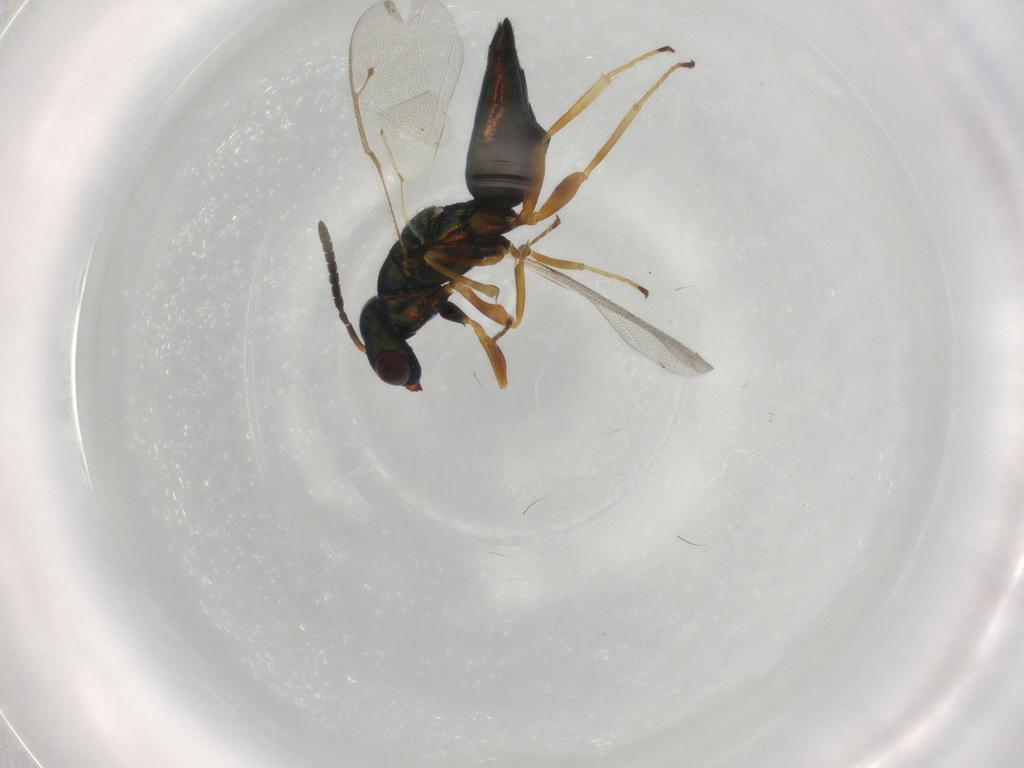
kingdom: Animalia
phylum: Arthropoda
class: Insecta
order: Hymenoptera
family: Pteromalidae
